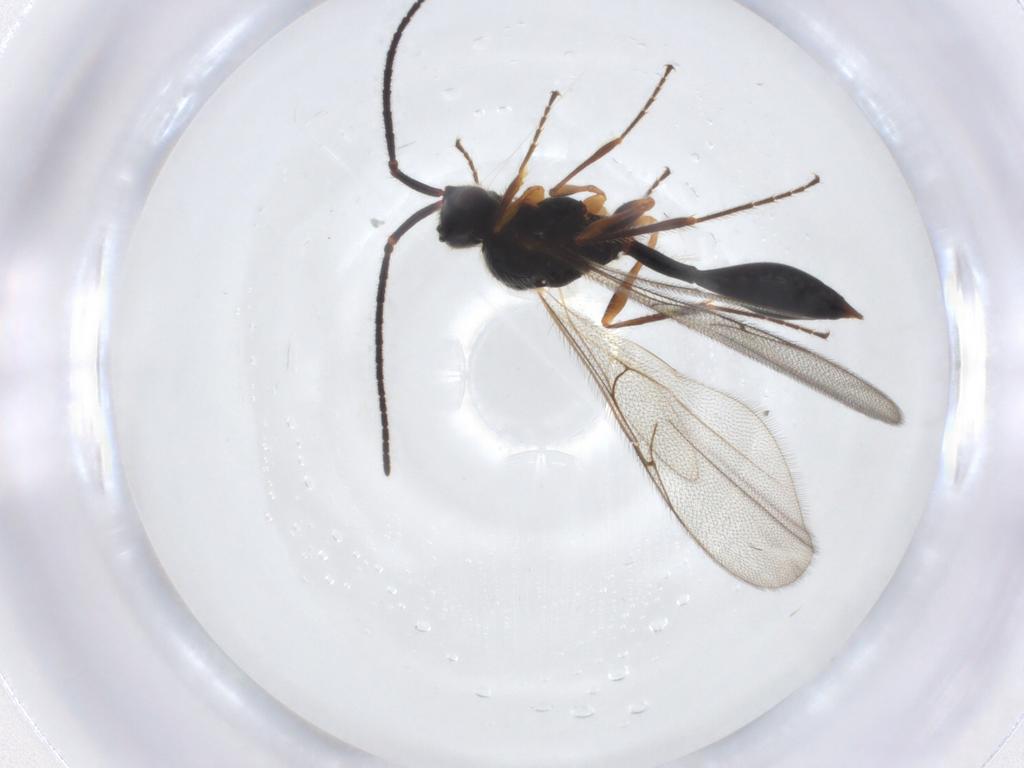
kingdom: Animalia
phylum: Arthropoda
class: Insecta
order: Hymenoptera
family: Diapriidae
